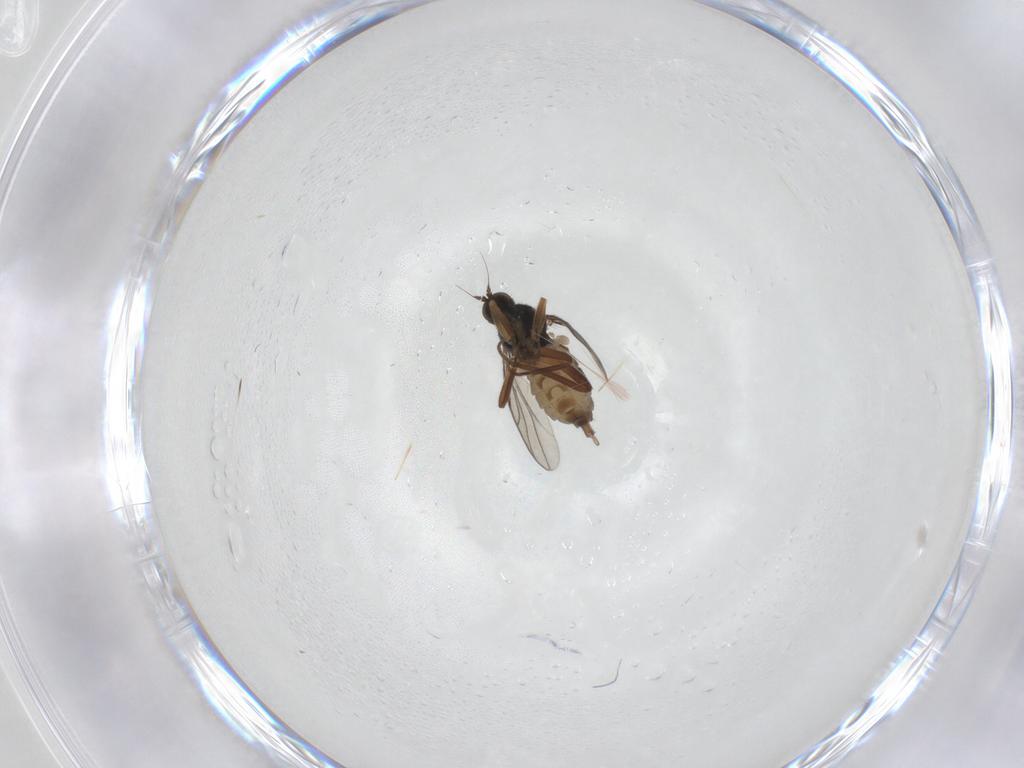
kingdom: Animalia
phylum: Arthropoda
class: Insecta
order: Diptera
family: Hybotidae
